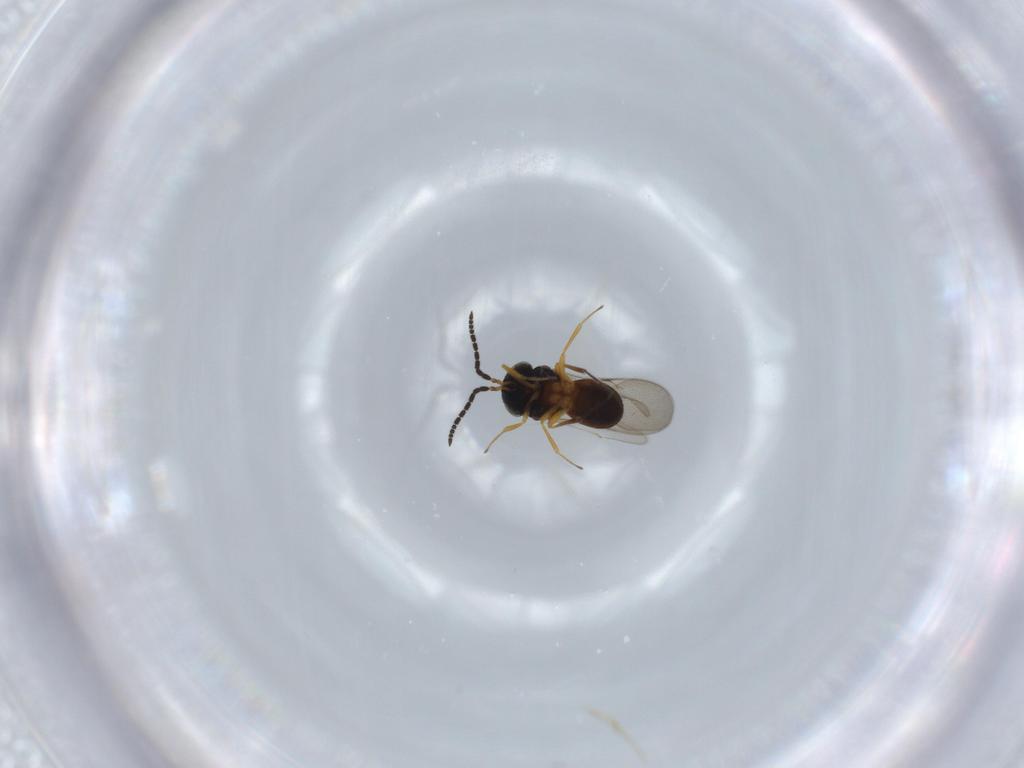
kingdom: Animalia
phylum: Arthropoda
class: Insecta
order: Hymenoptera
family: Scelionidae
